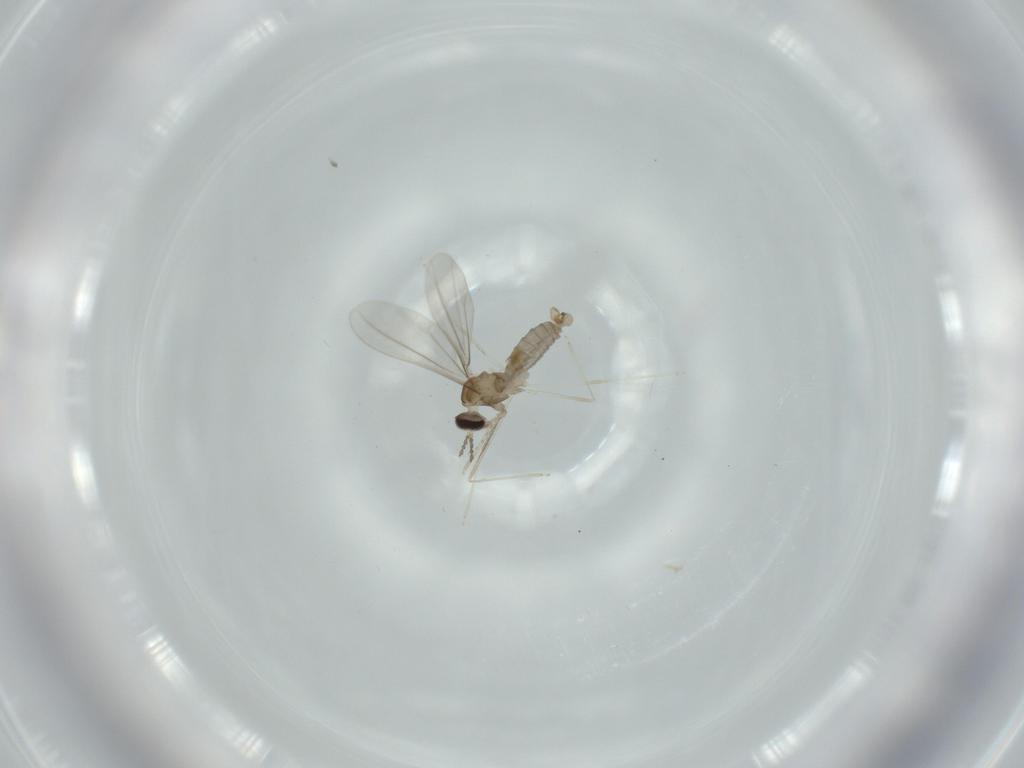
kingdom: Animalia
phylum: Arthropoda
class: Insecta
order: Diptera
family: Cecidomyiidae
